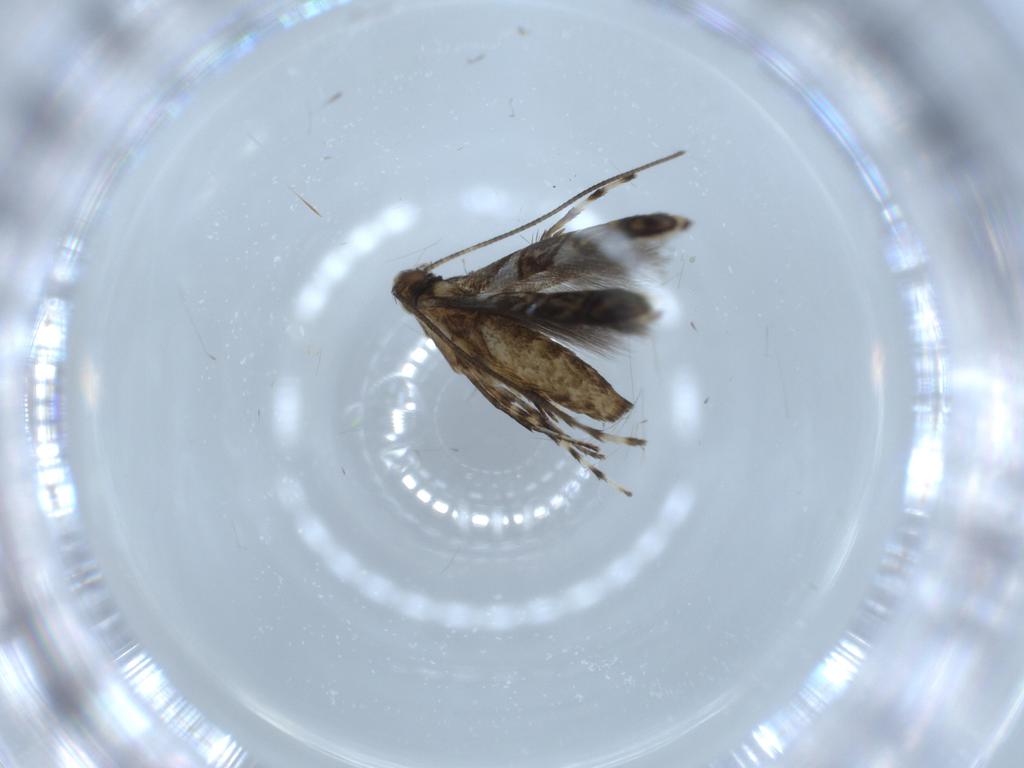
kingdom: Animalia
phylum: Arthropoda
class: Insecta
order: Lepidoptera
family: Gracillariidae
